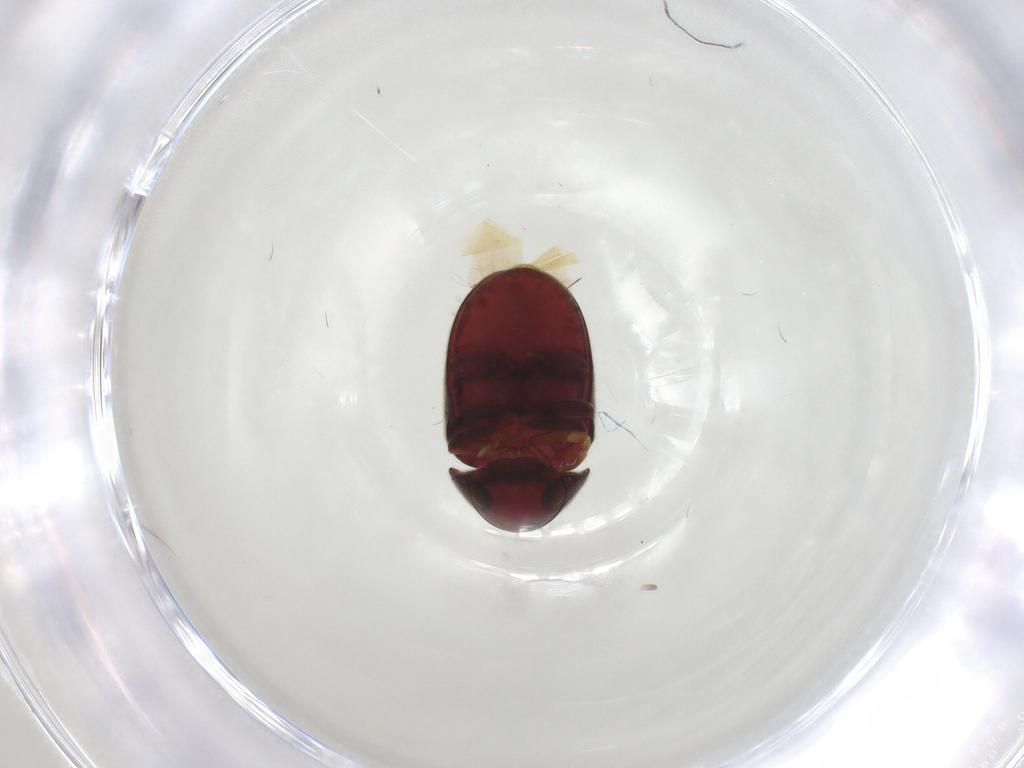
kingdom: Animalia
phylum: Arthropoda
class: Insecta
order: Coleoptera
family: Ptinidae
